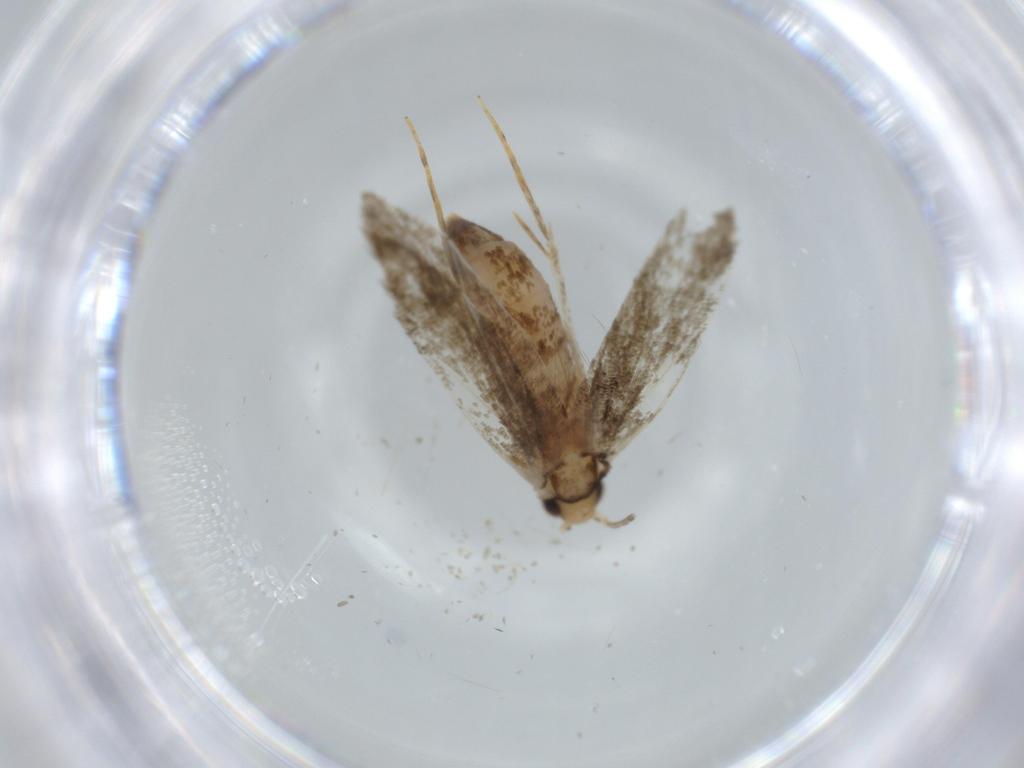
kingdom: Animalia
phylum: Arthropoda
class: Insecta
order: Lepidoptera
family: Meessiidae
